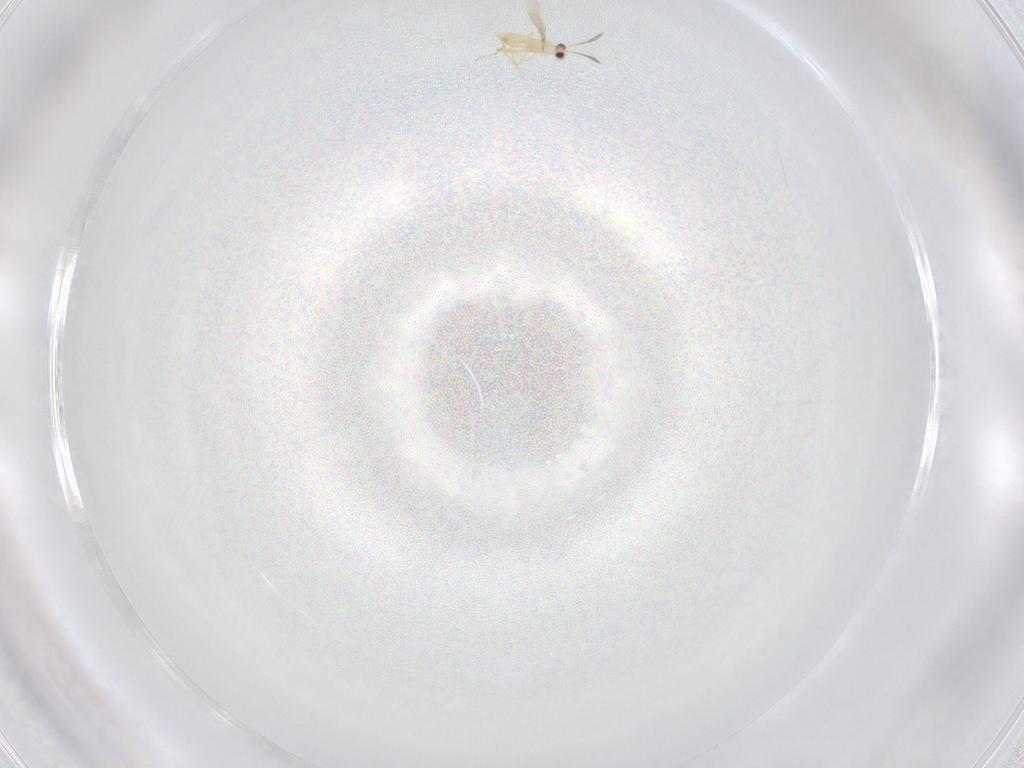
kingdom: Animalia
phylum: Arthropoda
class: Insecta
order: Hymenoptera
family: Mymaridae
